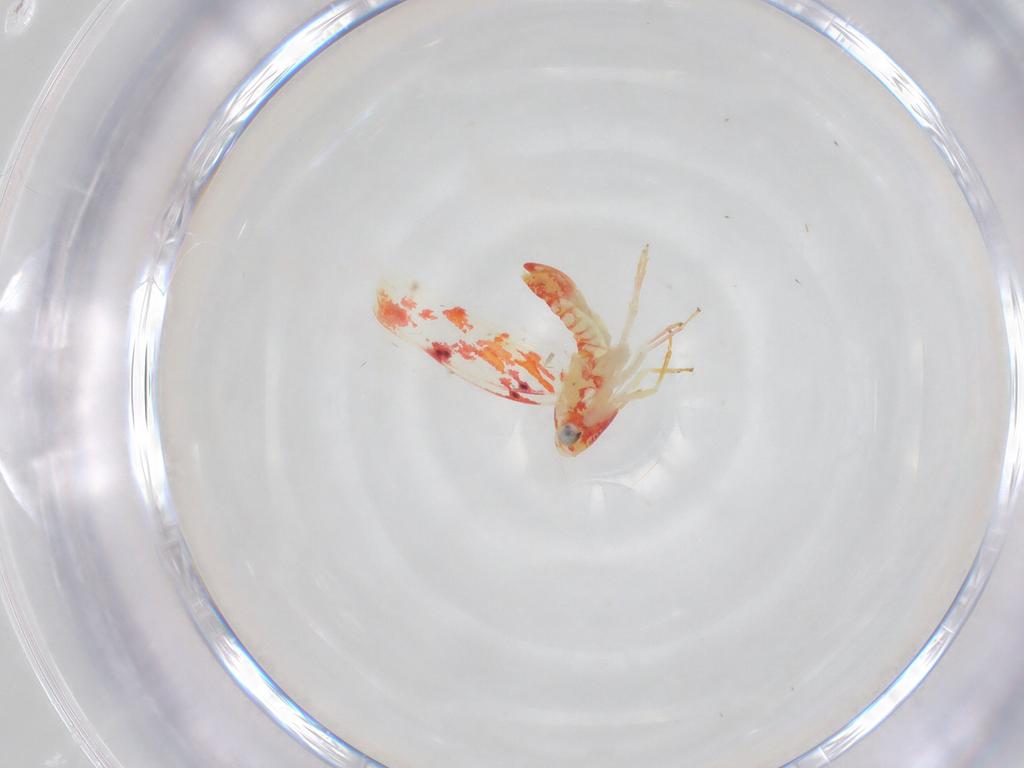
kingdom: Animalia
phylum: Arthropoda
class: Insecta
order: Hemiptera
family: Cicadellidae
